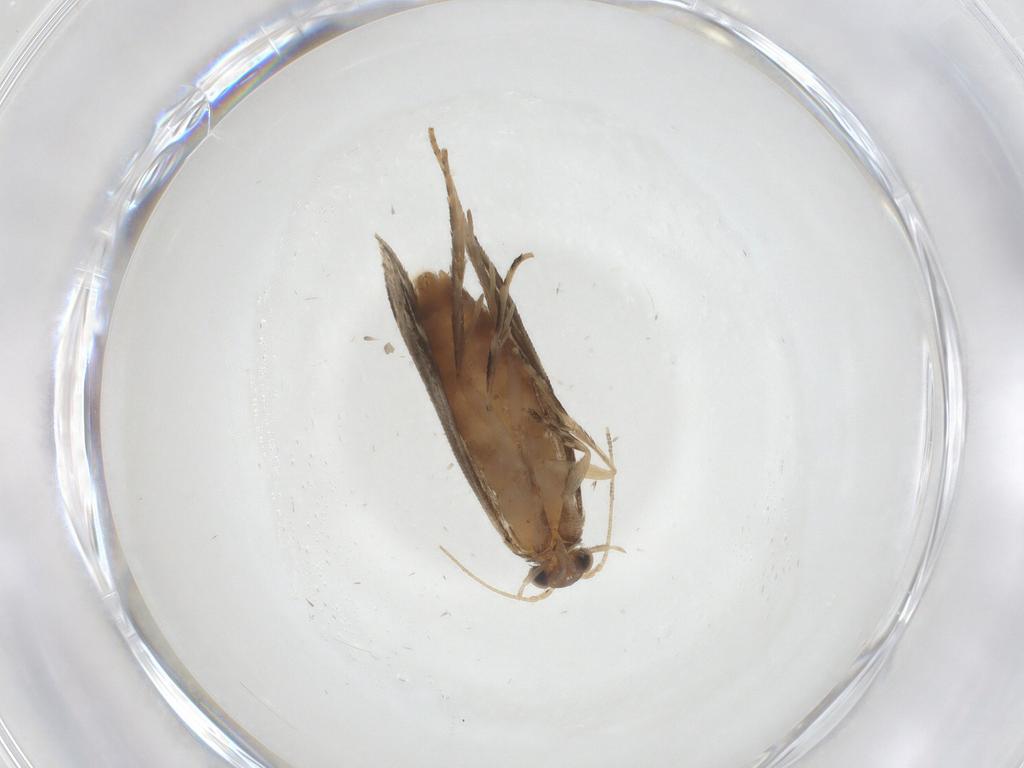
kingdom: Animalia
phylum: Arthropoda
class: Insecta
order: Lepidoptera
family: Tineidae
